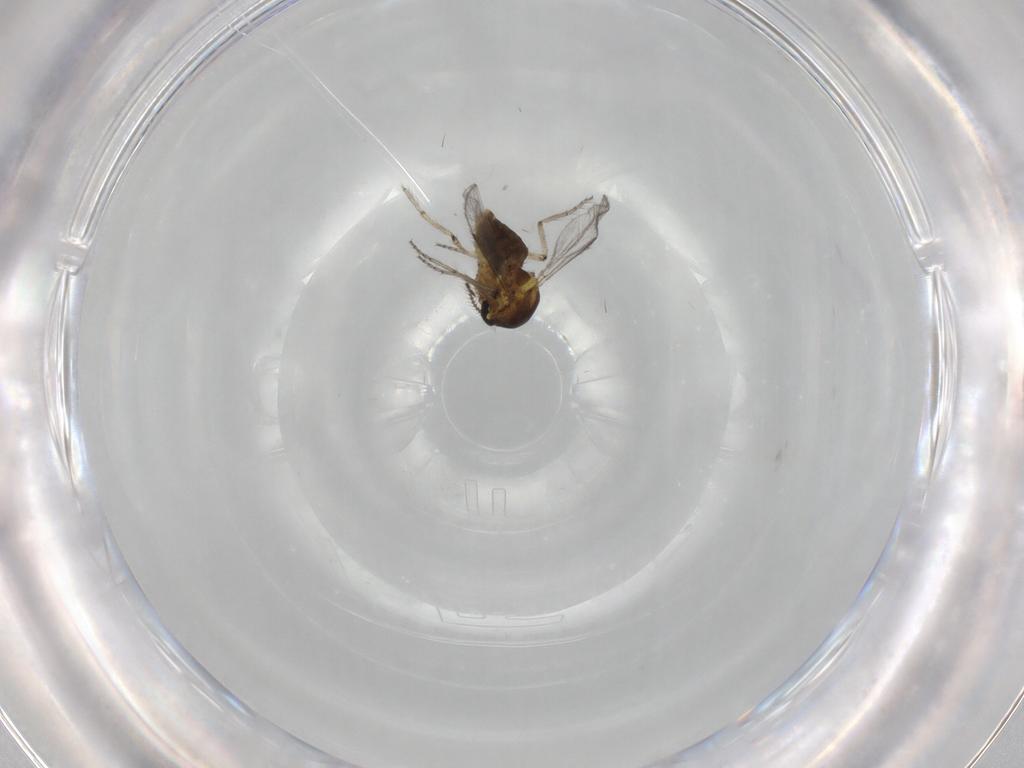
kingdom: Animalia
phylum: Arthropoda
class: Insecta
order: Diptera
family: Ceratopogonidae
